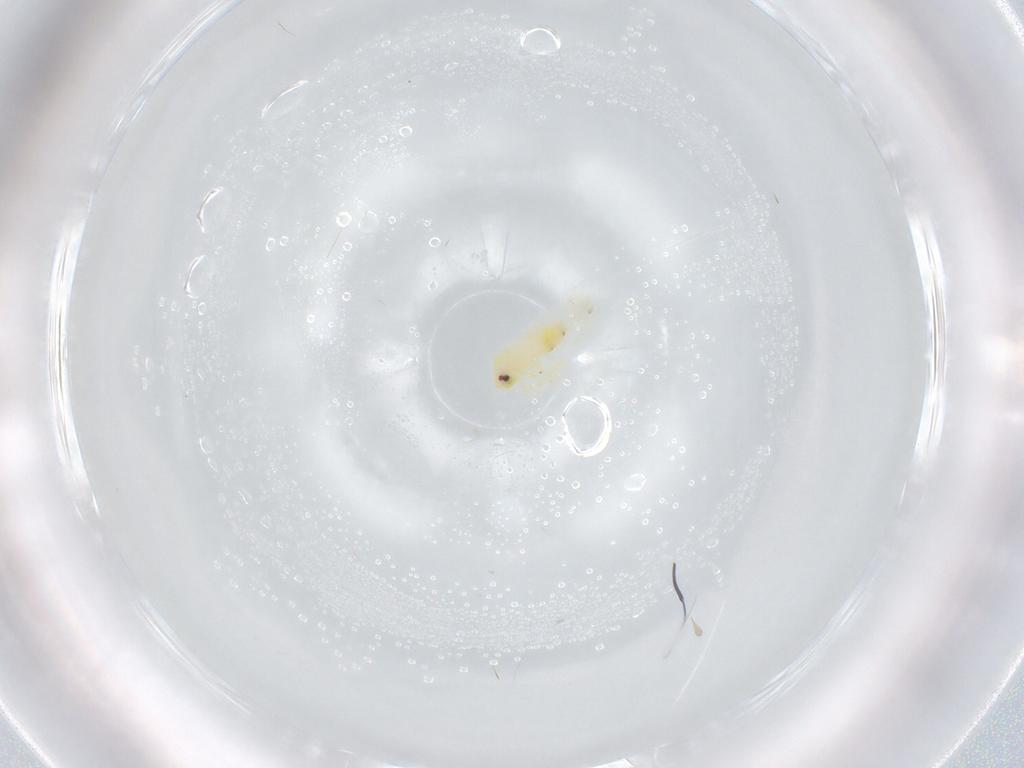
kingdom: Animalia
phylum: Arthropoda
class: Insecta
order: Hemiptera
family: Aleyrodidae
